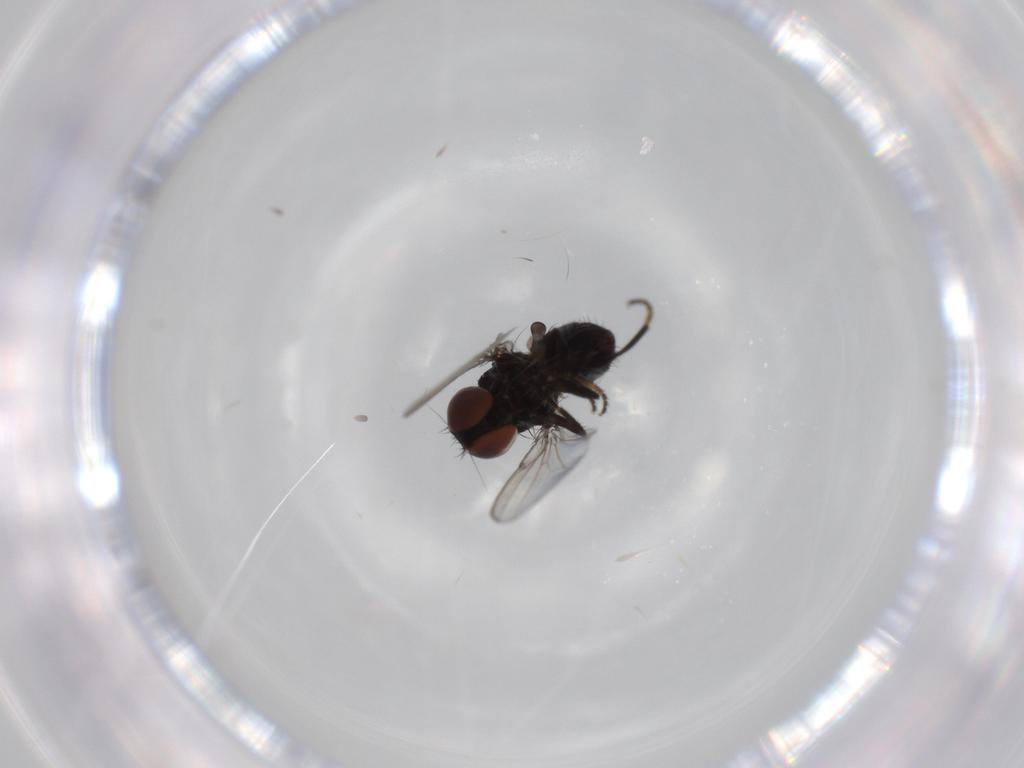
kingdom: Animalia
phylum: Arthropoda
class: Insecta
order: Diptera
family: Milichiidae
